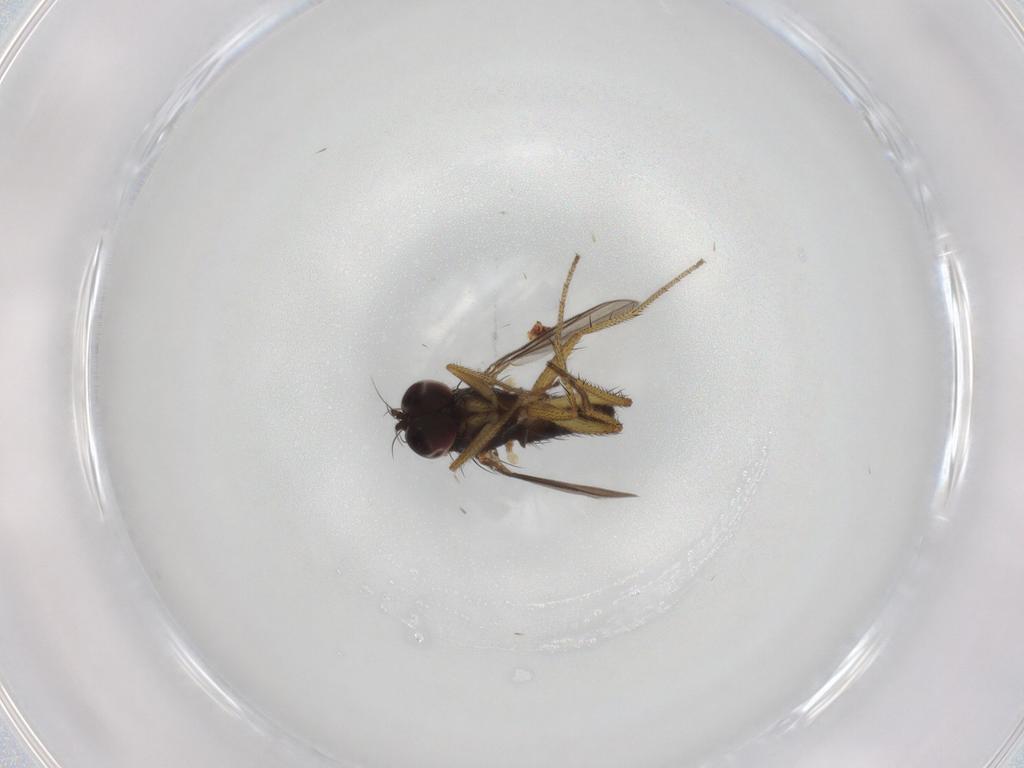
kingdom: Animalia
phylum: Arthropoda
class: Insecta
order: Diptera
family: Dolichopodidae
